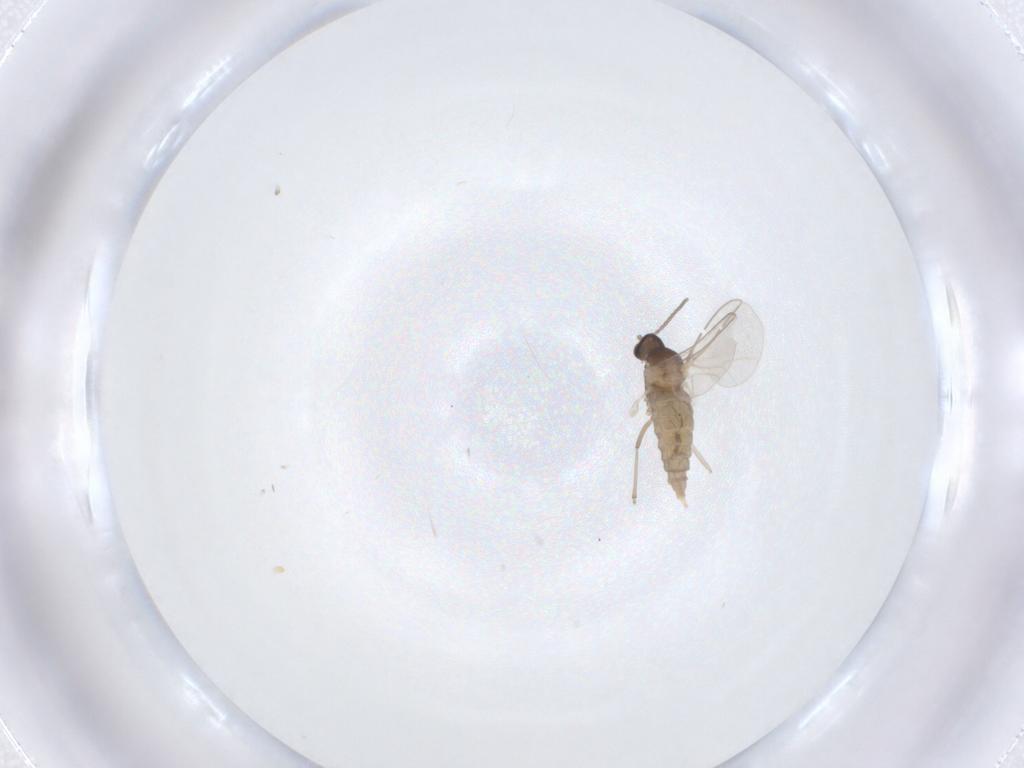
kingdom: Animalia
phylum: Arthropoda
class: Insecta
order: Diptera
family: Cecidomyiidae
